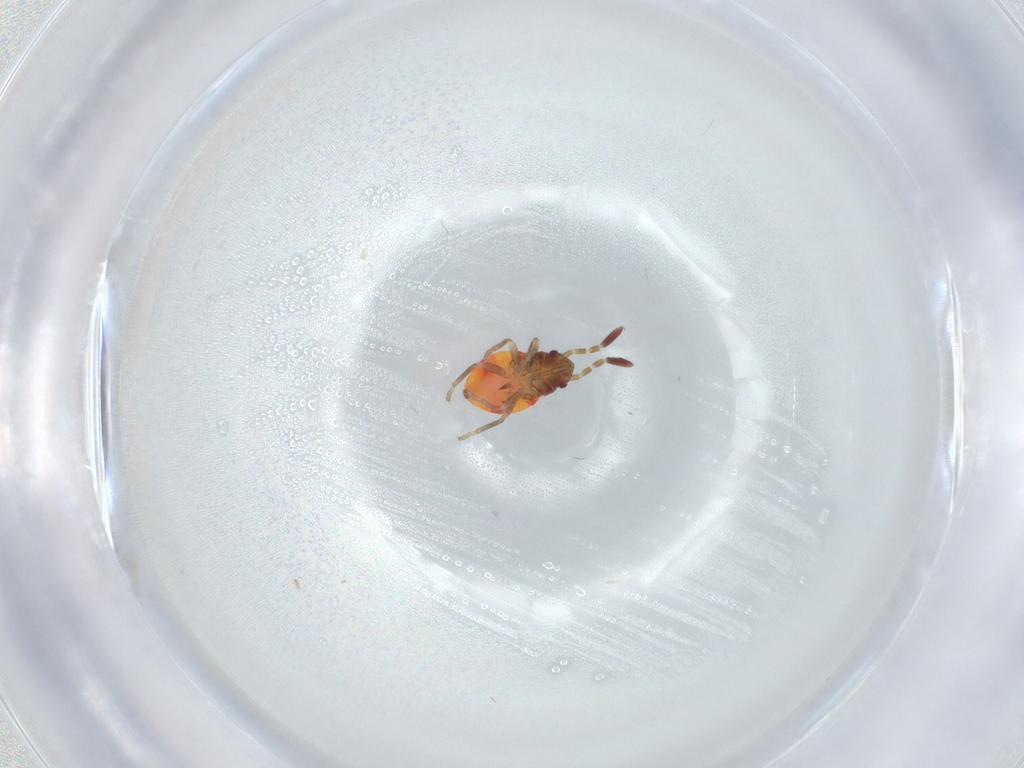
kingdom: Animalia
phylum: Arthropoda
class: Insecta
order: Hemiptera
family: Rhyparochromidae
